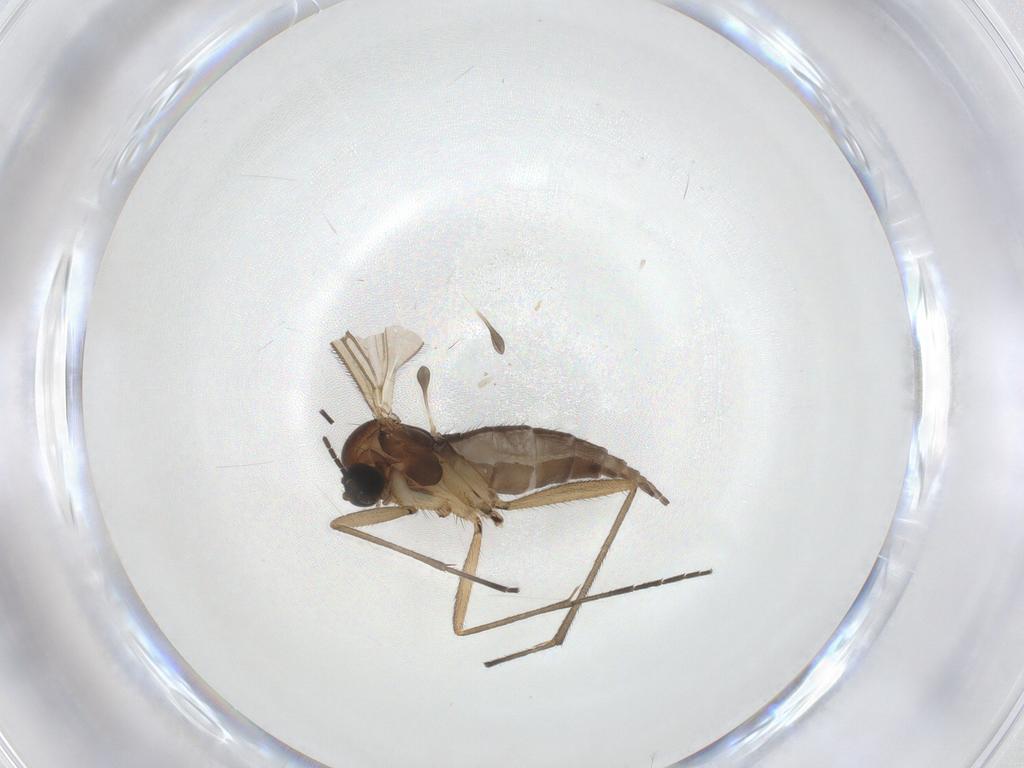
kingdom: Animalia
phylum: Arthropoda
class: Insecta
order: Diptera
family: Sciaridae
